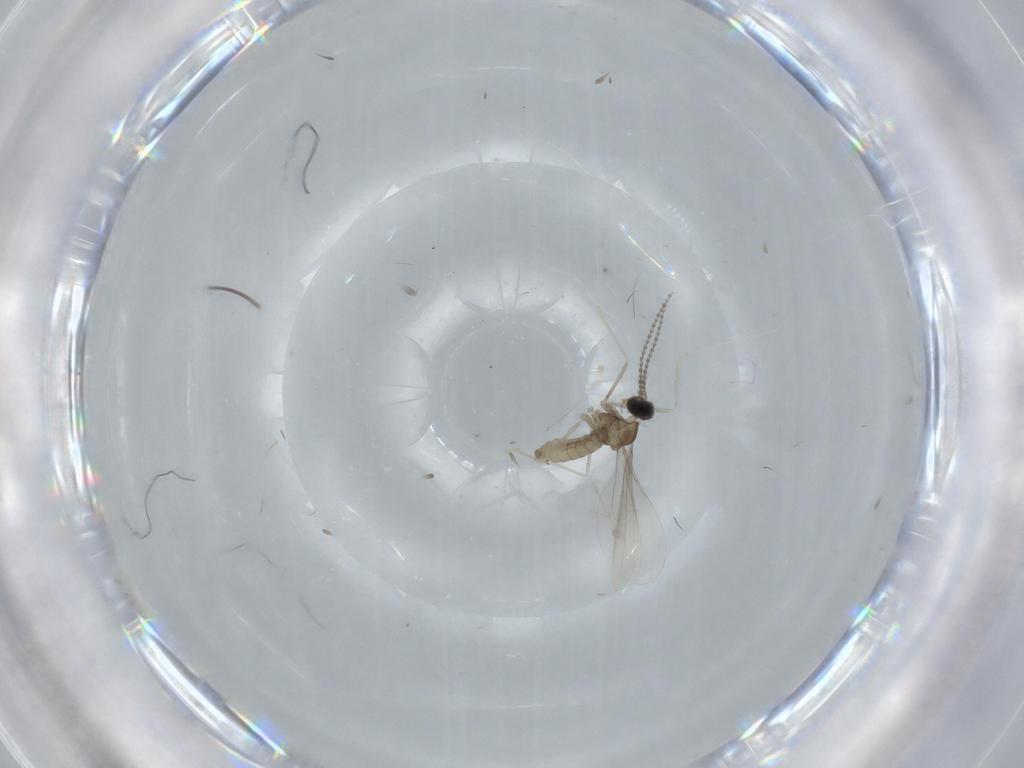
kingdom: Animalia
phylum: Arthropoda
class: Insecta
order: Diptera
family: Cecidomyiidae
